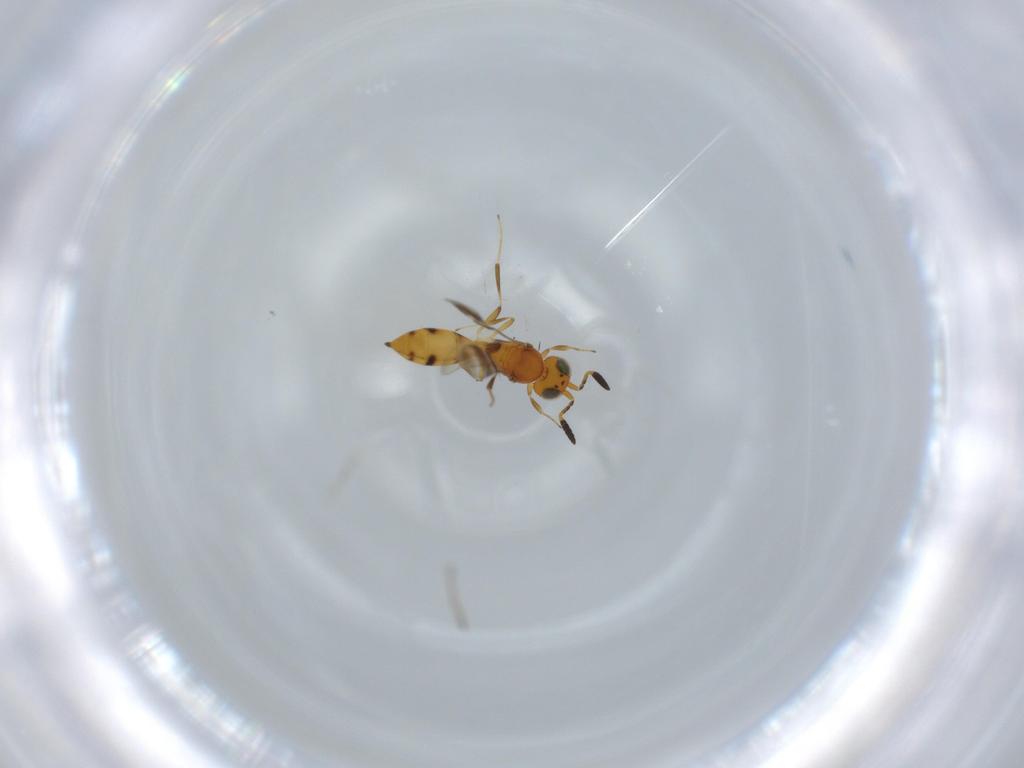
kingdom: Animalia
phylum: Arthropoda
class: Insecta
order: Hymenoptera
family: Scelionidae
